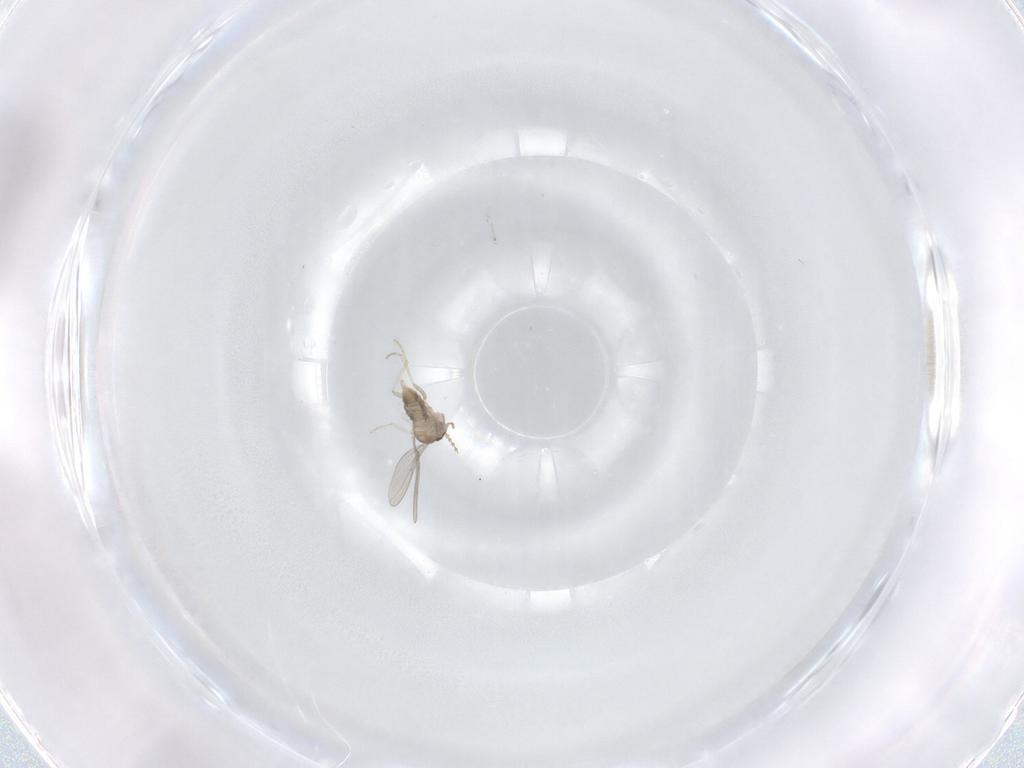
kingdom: Animalia
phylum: Arthropoda
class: Insecta
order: Diptera
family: Cecidomyiidae
